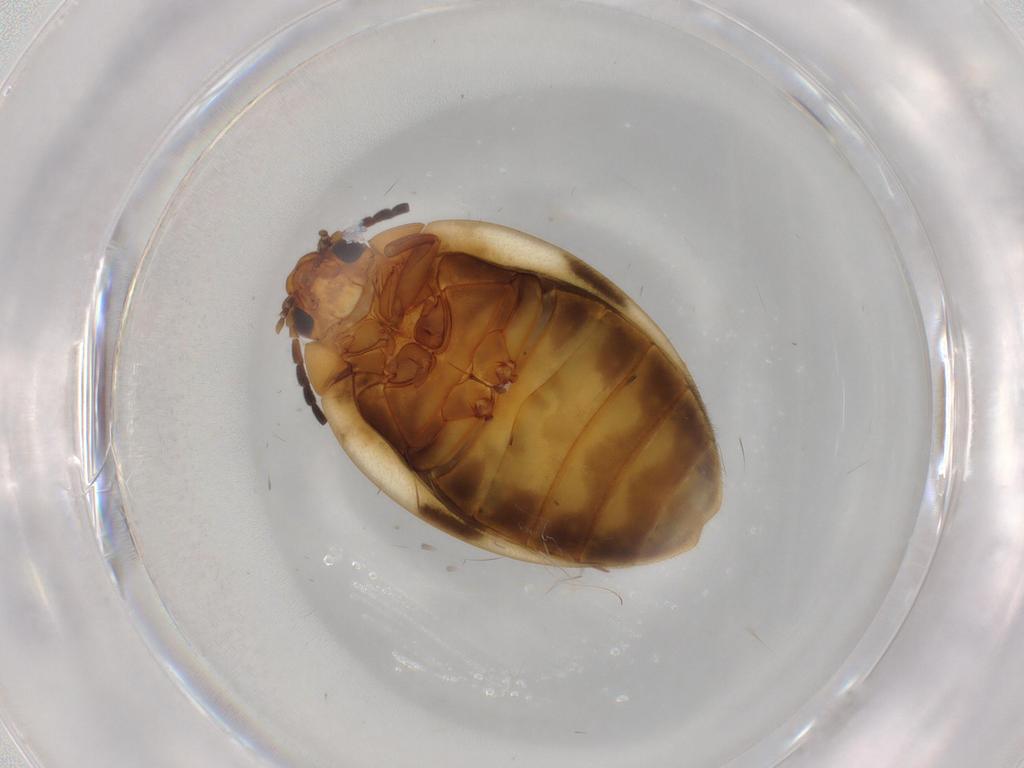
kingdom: Animalia
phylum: Arthropoda
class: Insecta
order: Coleoptera
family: Scirtidae
